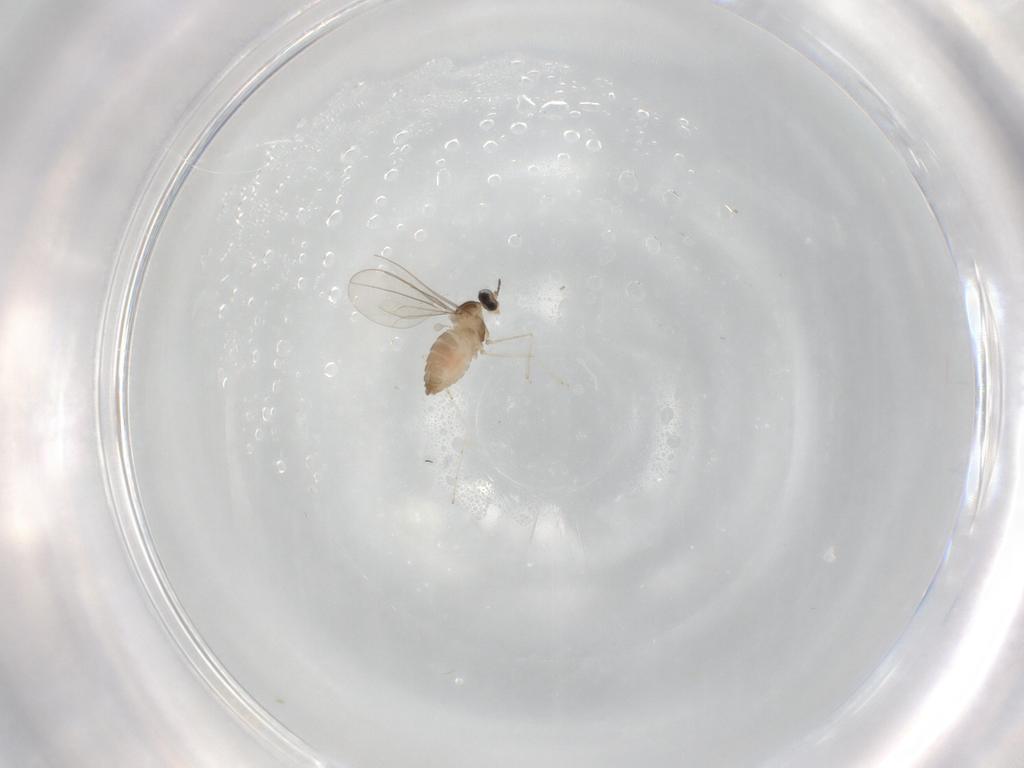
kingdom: Animalia
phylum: Arthropoda
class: Insecta
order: Diptera
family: Cecidomyiidae
